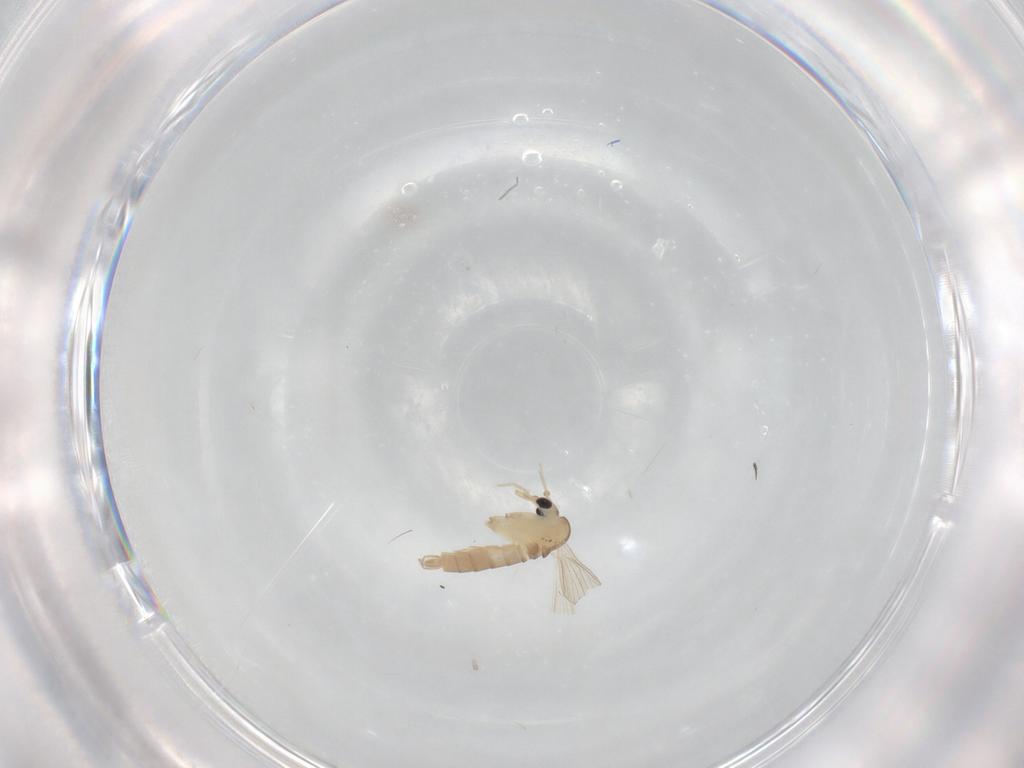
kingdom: Animalia
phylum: Arthropoda
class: Insecta
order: Diptera
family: Psychodidae
